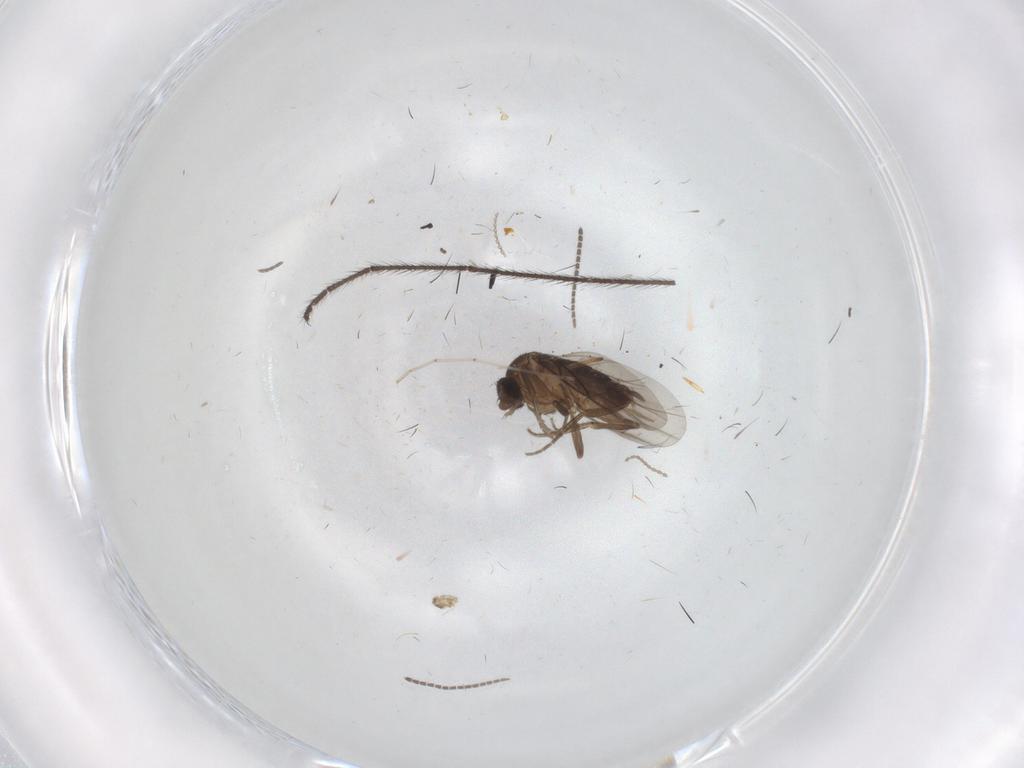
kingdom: Animalia
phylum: Arthropoda
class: Insecta
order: Diptera
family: Phoridae
